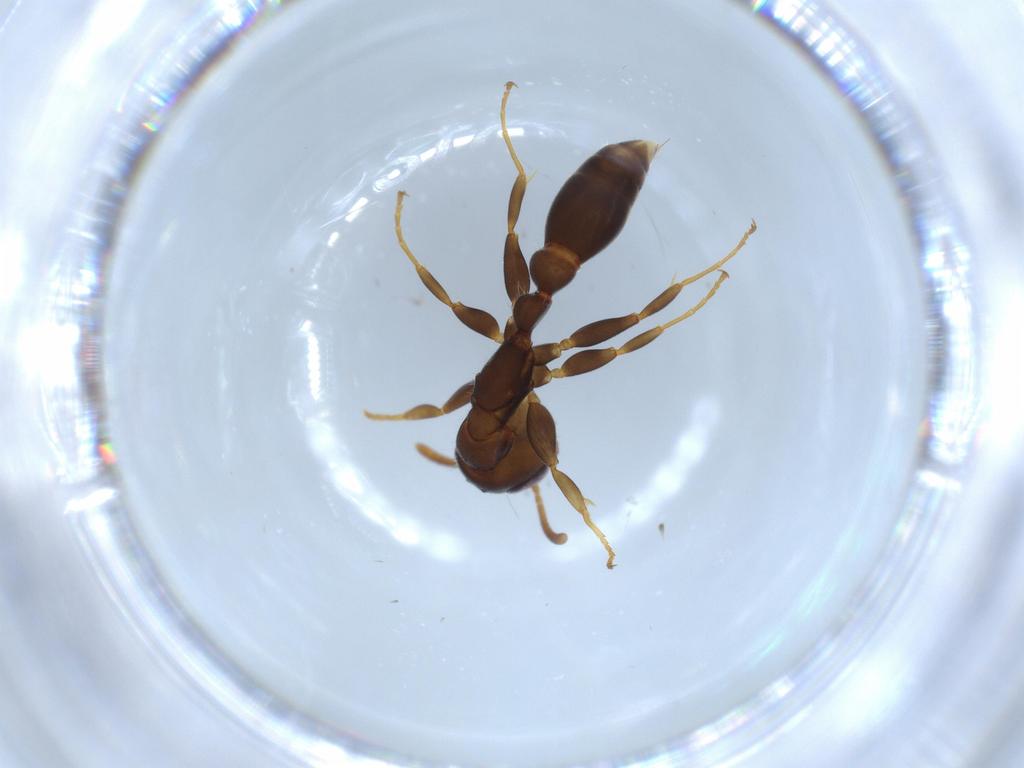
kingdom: Animalia
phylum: Arthropoda
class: Insecta
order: Hymenoptera
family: Formicidae
